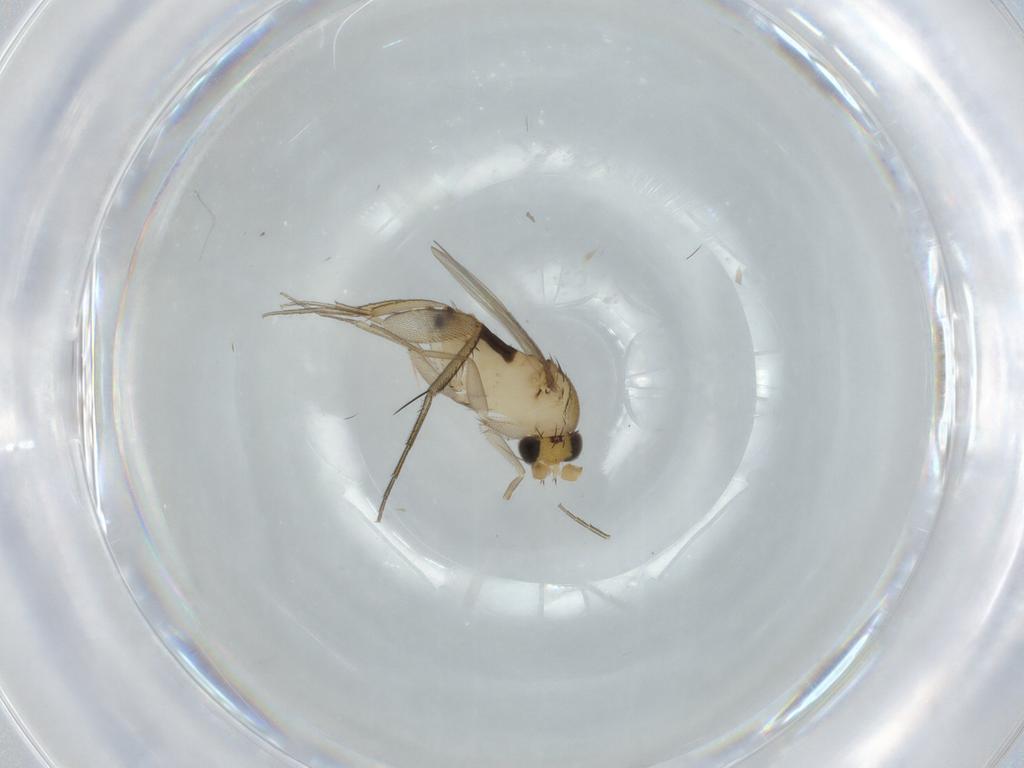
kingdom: Animalia
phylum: Arthropoda
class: Insecta
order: Diptera
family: Phoridae
